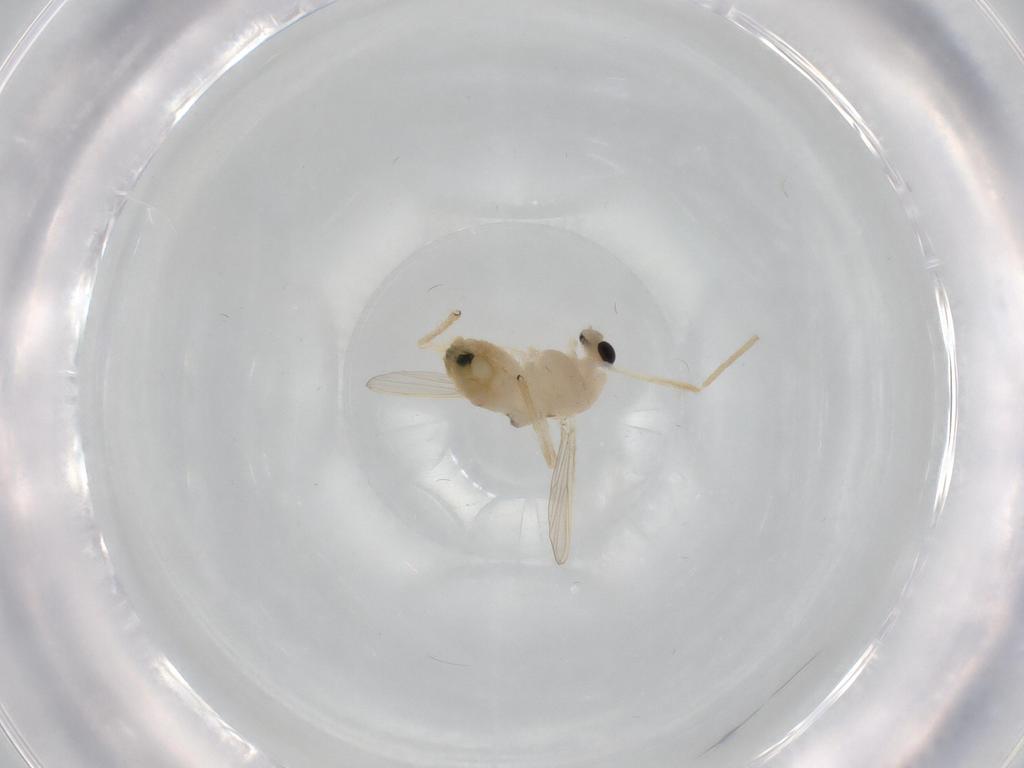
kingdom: Animalia
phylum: Arthropoda
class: Insecta
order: Diptera
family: Chironomidae
